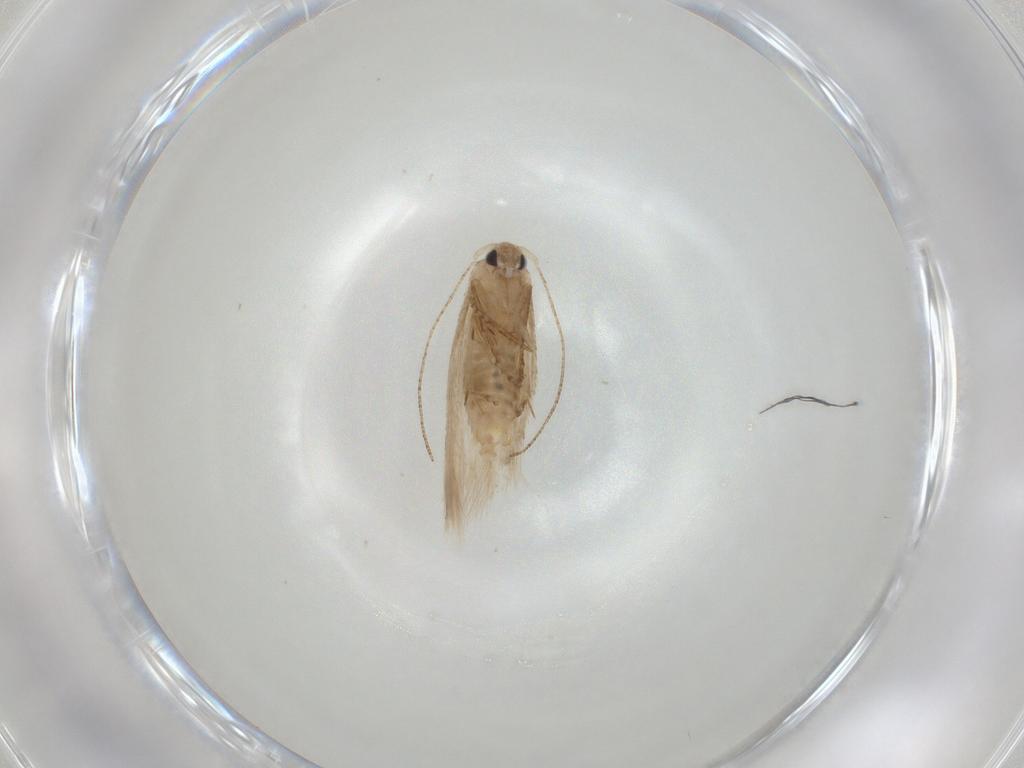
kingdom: Animalia
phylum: Arthropoda
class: Insecta
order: Lepidoptera
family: Bucculatricidae
